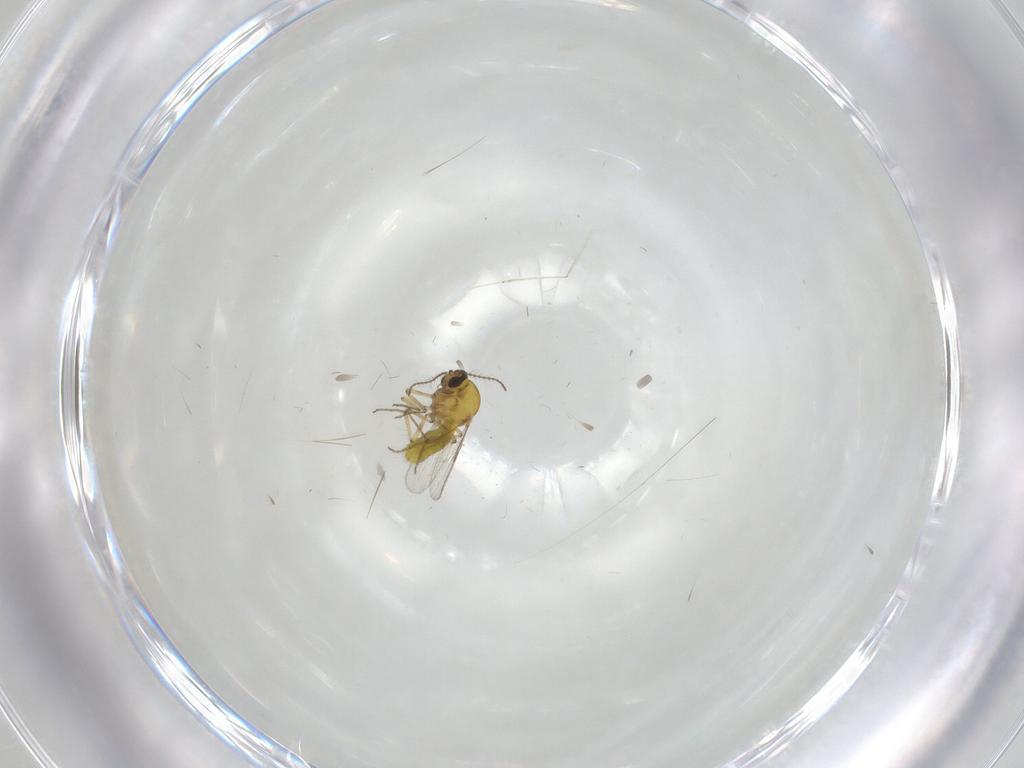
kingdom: Animalia
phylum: Arthropoda
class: Insecta
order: Diptera
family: Ceratopogonidae
